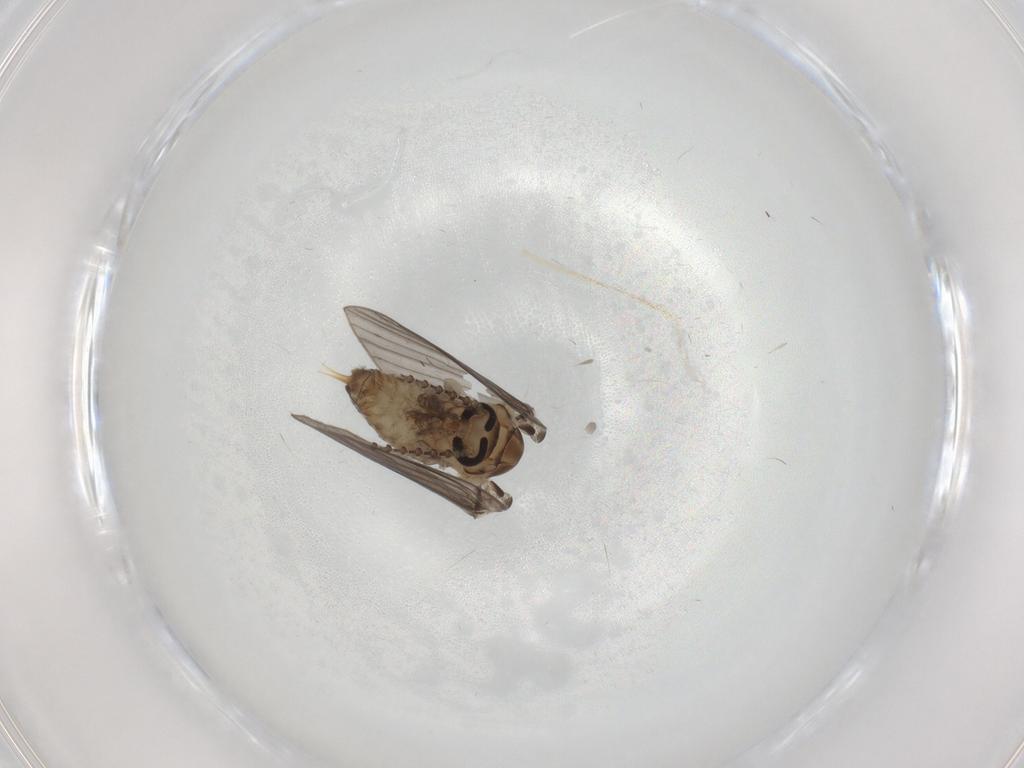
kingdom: Animalia
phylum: Arthropoda
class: Insecta
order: Diptera
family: Psychodidae
